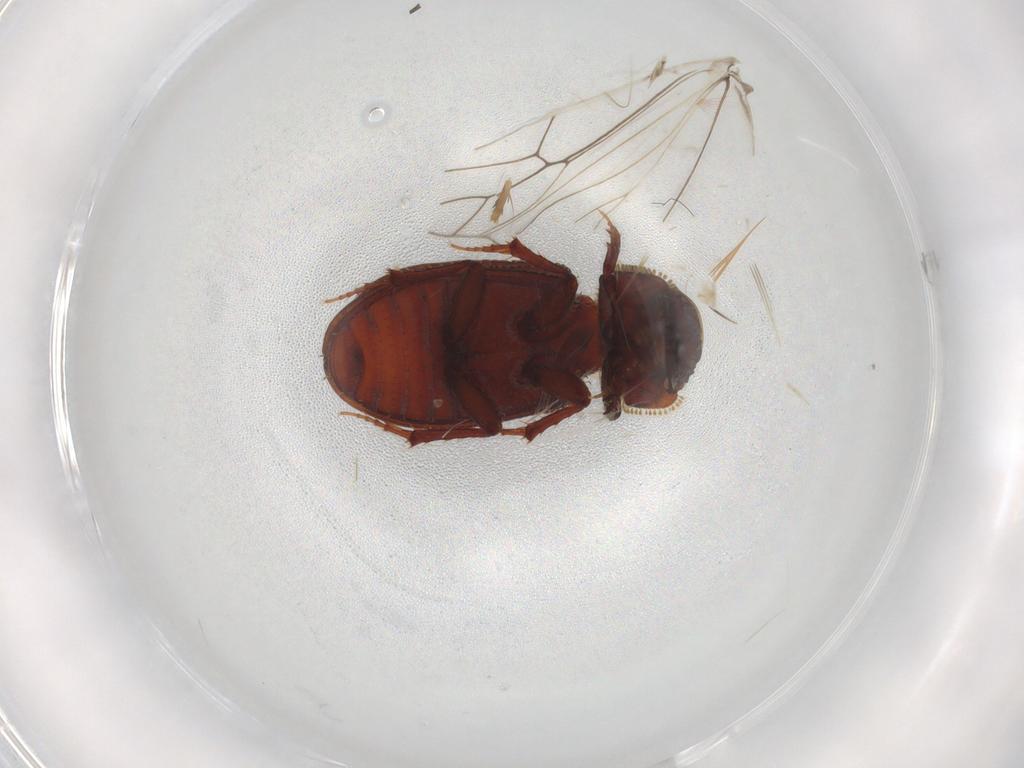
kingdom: Animalia
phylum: Arthropoda
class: Insecta
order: Coleoptera
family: Scarabaeidae
